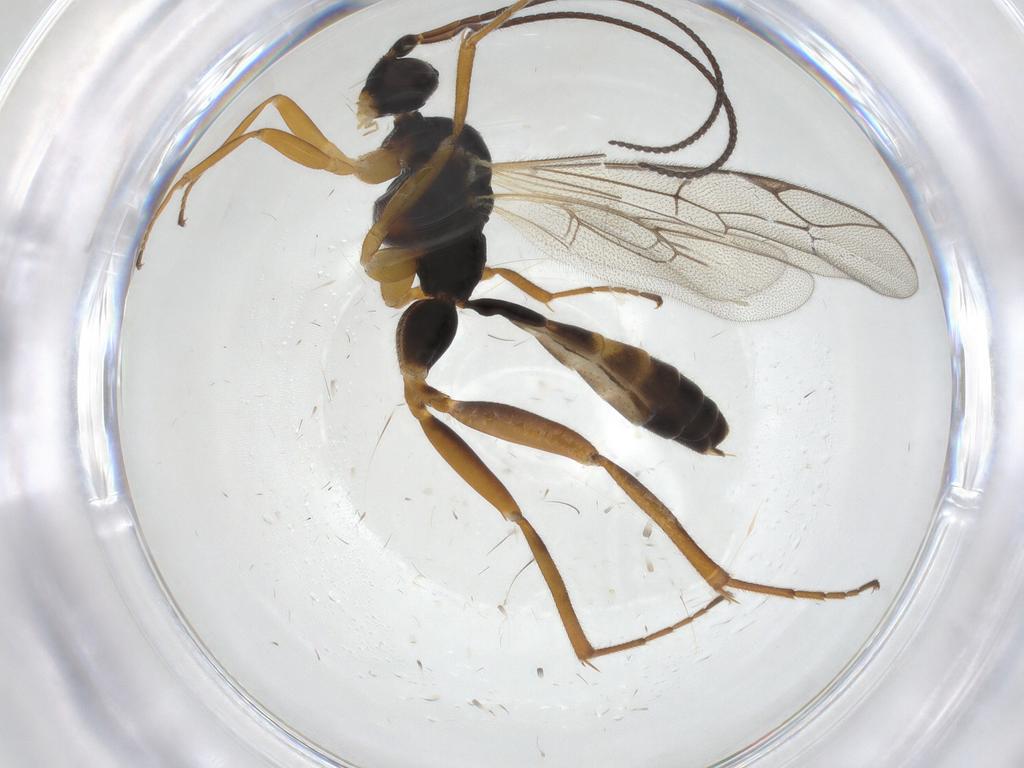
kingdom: Animalia
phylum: Arthropoda
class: Insecta
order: Hymenoptera
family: Ichneumonidae
